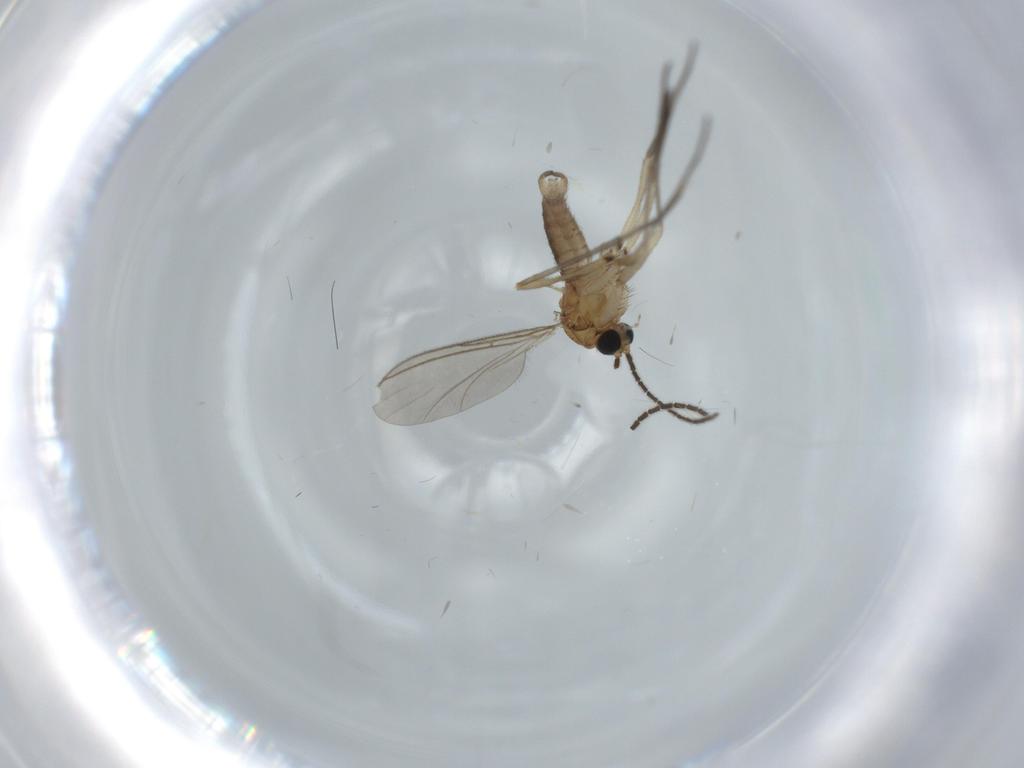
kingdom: Animalia
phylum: Arthropoda
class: Insecta
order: Diptera
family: Sciaridae
